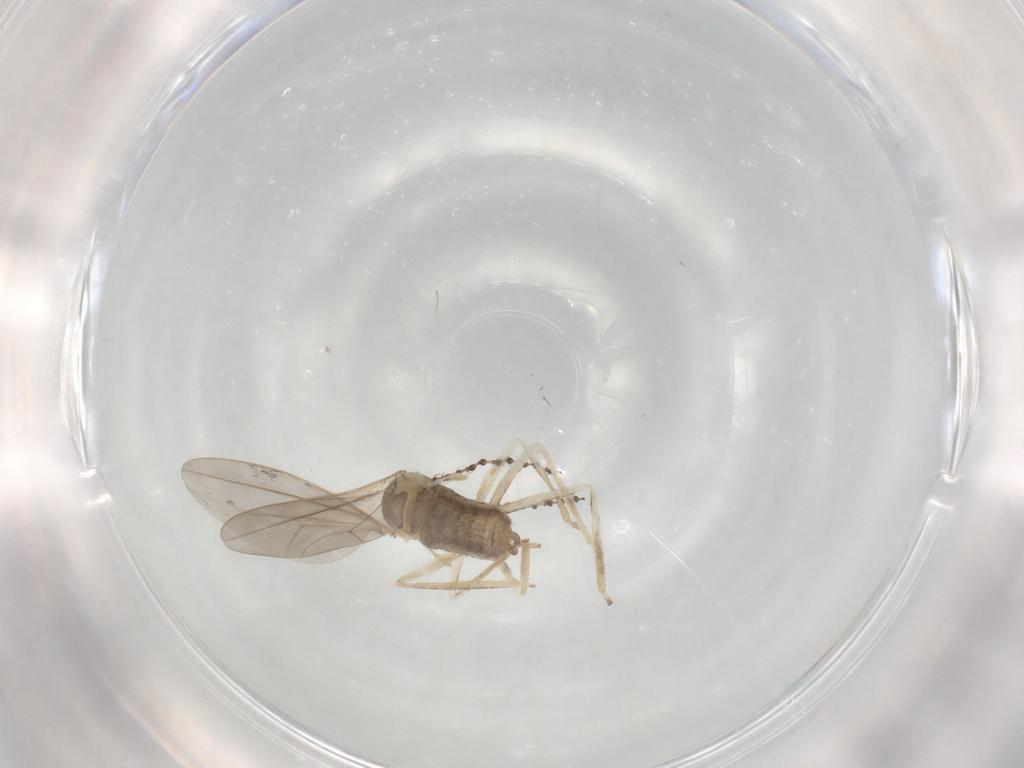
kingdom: Animalia
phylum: Arthropoda
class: Insecta
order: Diptera
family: Cecidomyiidae
